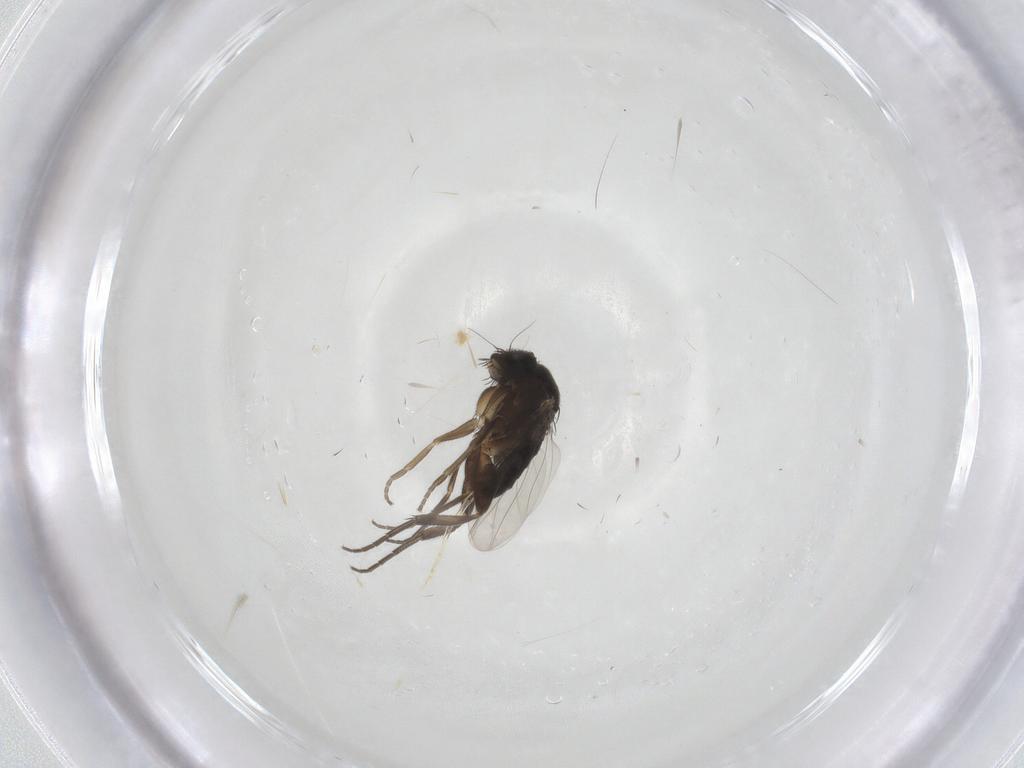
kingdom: Animalia
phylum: Arthropoda
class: Insecta
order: Diptera
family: Phoridae
